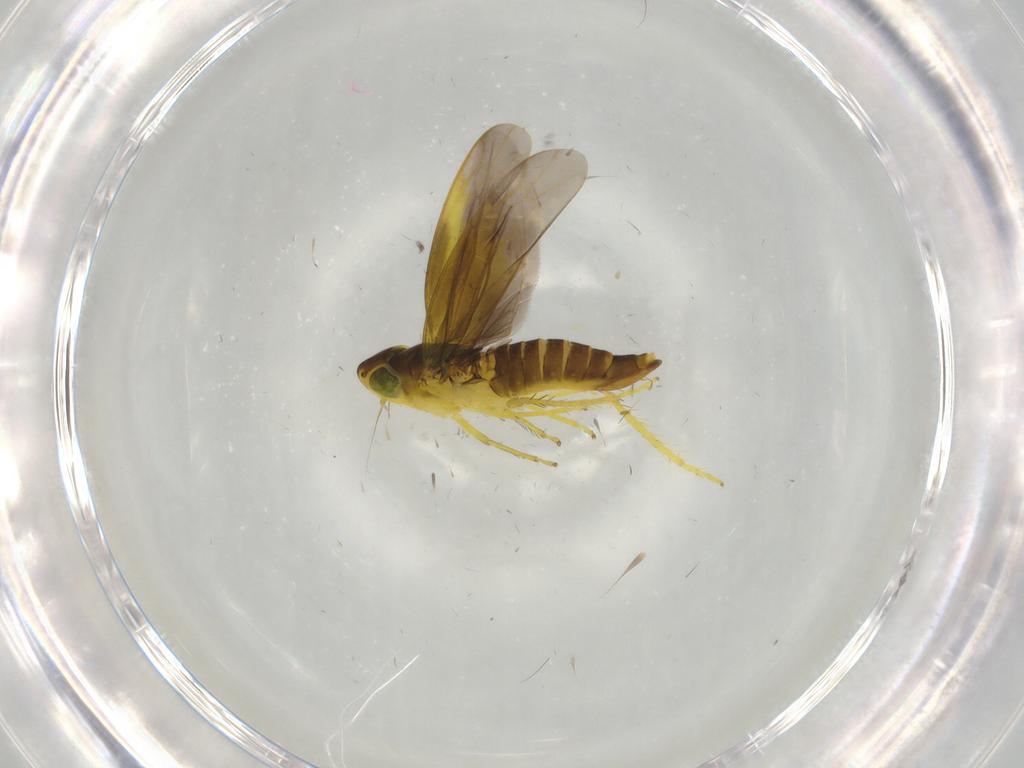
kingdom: Animalia
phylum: Arthropoda
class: Insecta
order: Hemiptera
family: Cicadellidae
